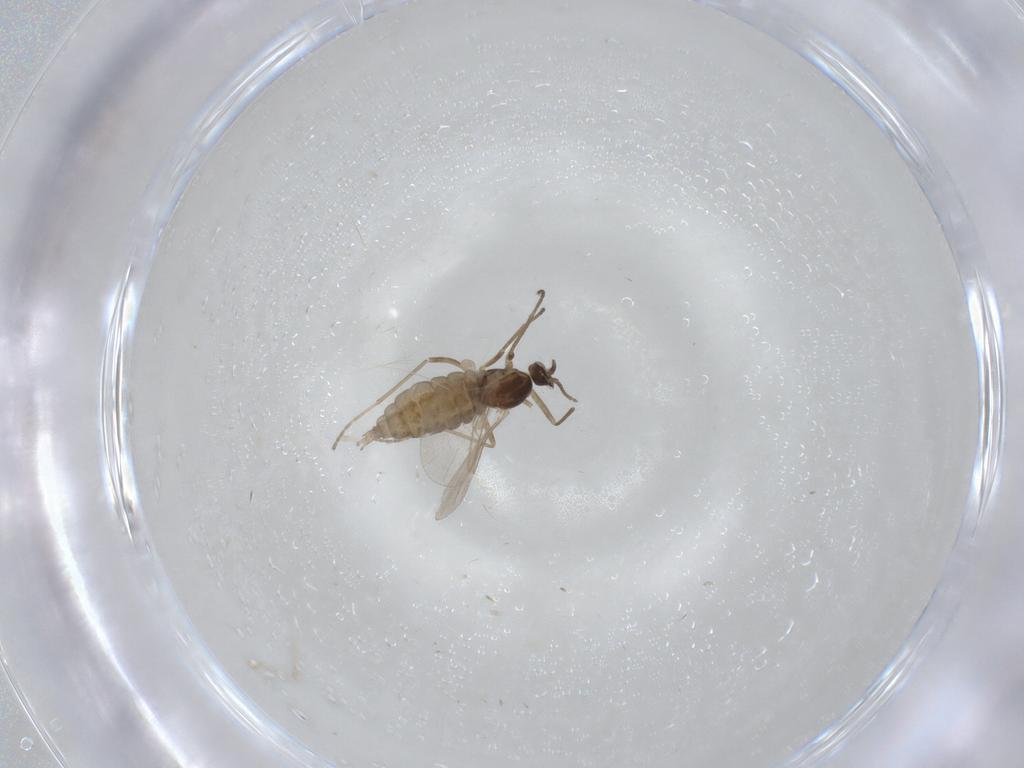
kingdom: Animalia
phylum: Arthropoda
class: Insecta
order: Diptera
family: Cecidomyiidae
